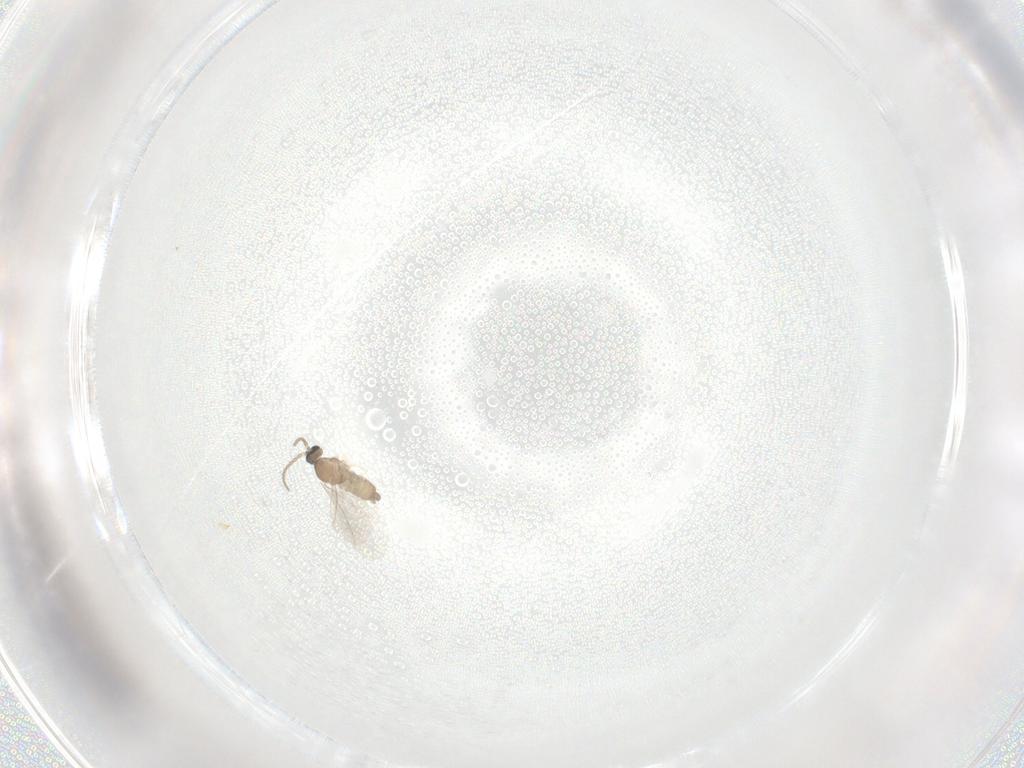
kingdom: Animalia
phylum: Arthropoda
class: Insecta
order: Diptera
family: Cecidomyiidae
